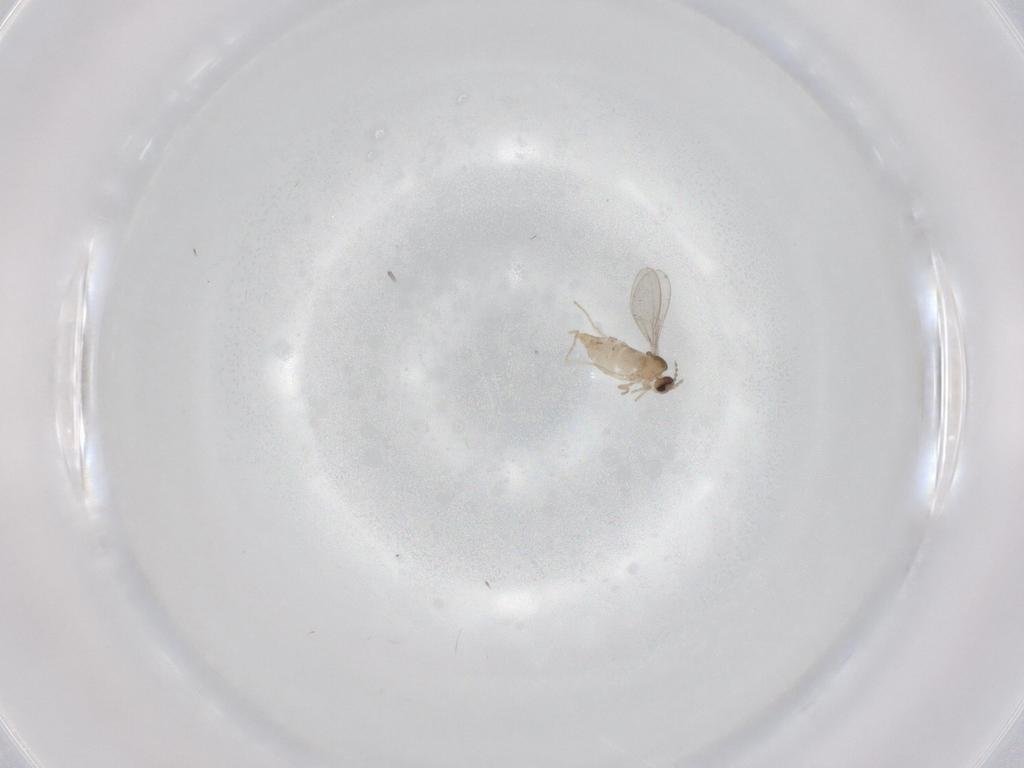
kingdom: Animalia
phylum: Arthropoda
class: Insecta
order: Diptera
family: Cecidomyiidae
